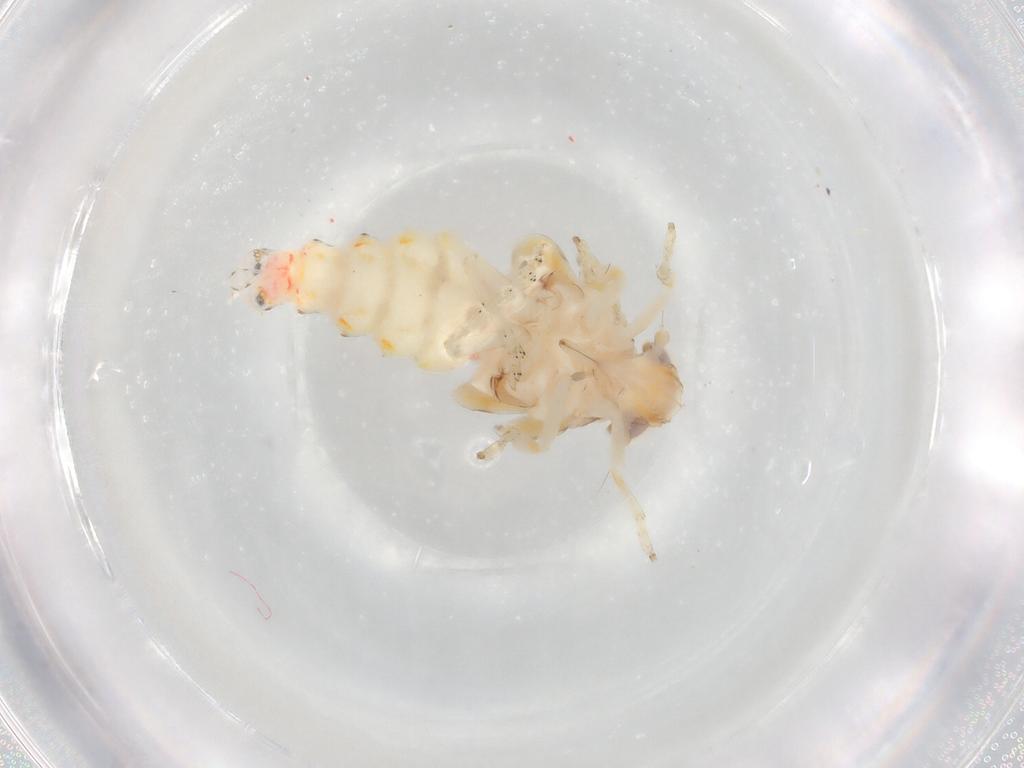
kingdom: Animalia
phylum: Arthropoda
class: Insecta
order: Hemiptera
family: Nogodinidae
